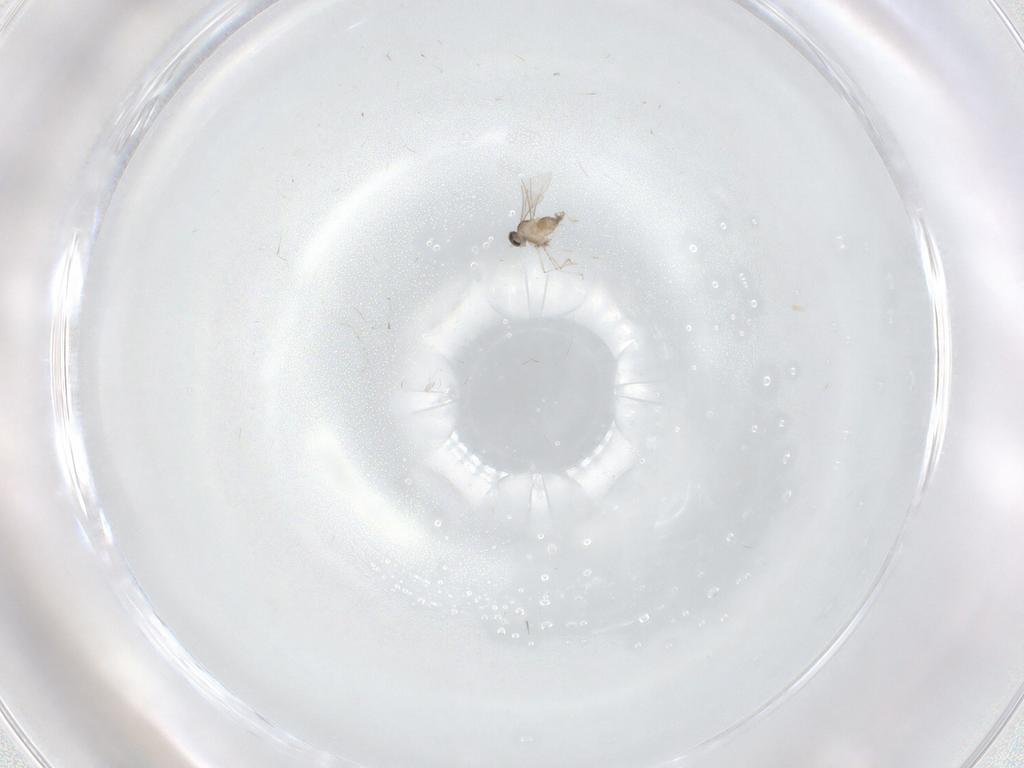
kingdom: Animalia
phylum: Arthropoda
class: Insecta
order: Diptera
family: Cecidomyiidae
